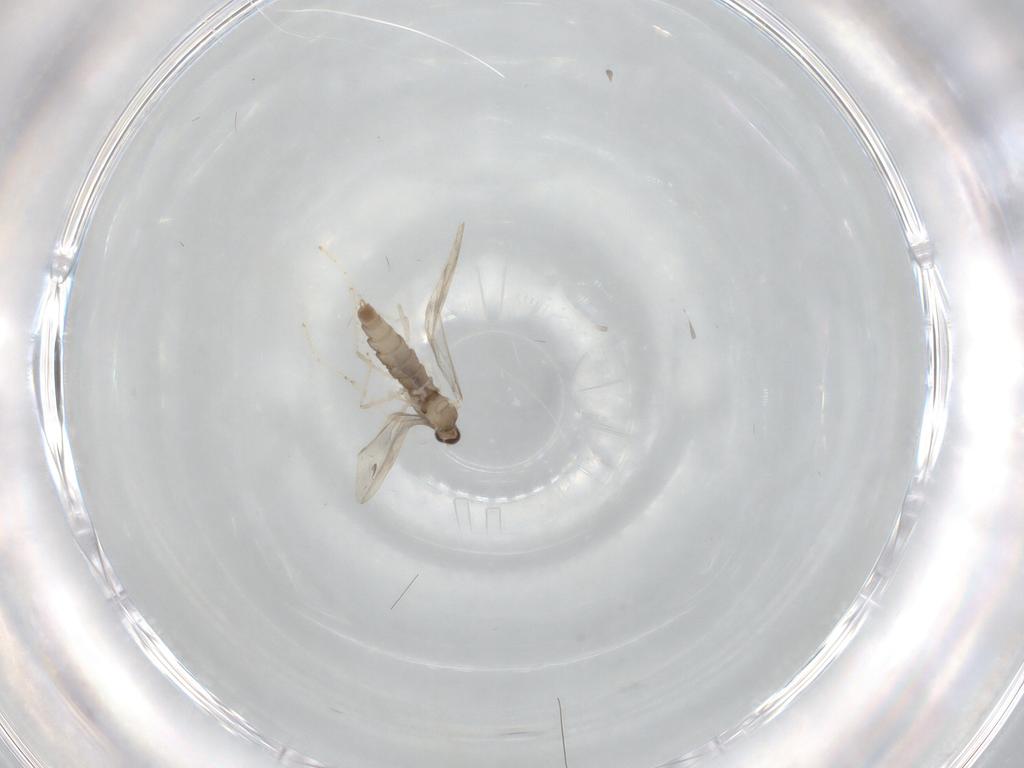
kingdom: Animalia
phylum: Arthropoda
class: Insecta
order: Diptera
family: Cecidomyiidae
